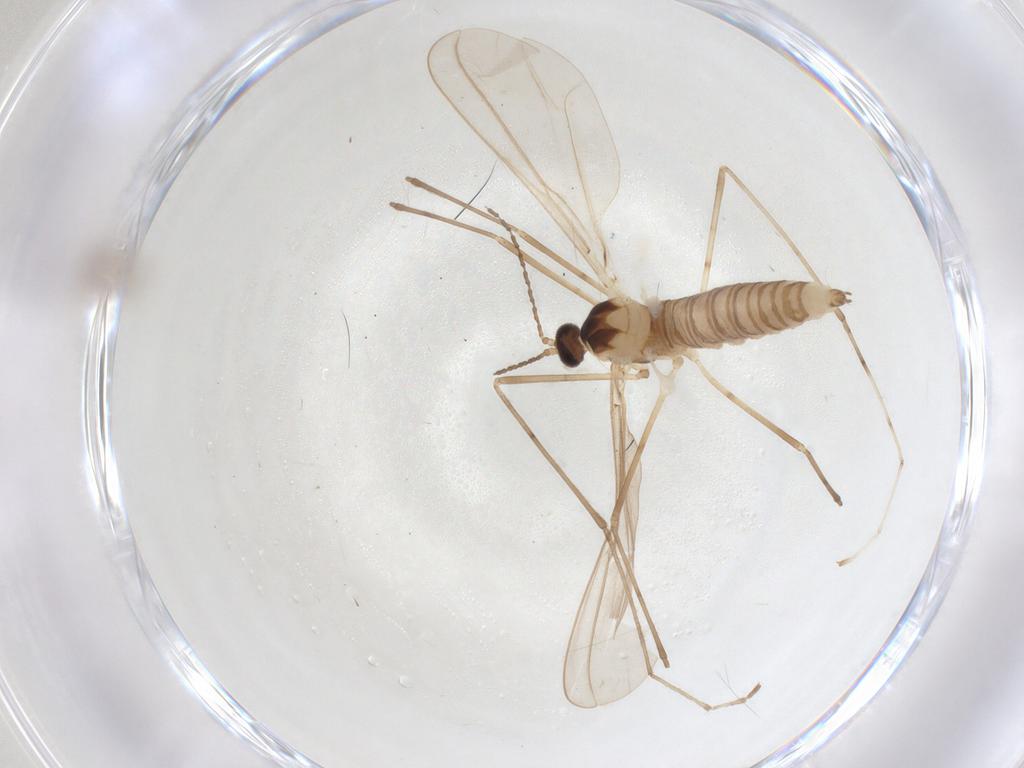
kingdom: Animalia
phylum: Arthropoda
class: Insecta
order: Diptera
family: Cecidomyiidae
